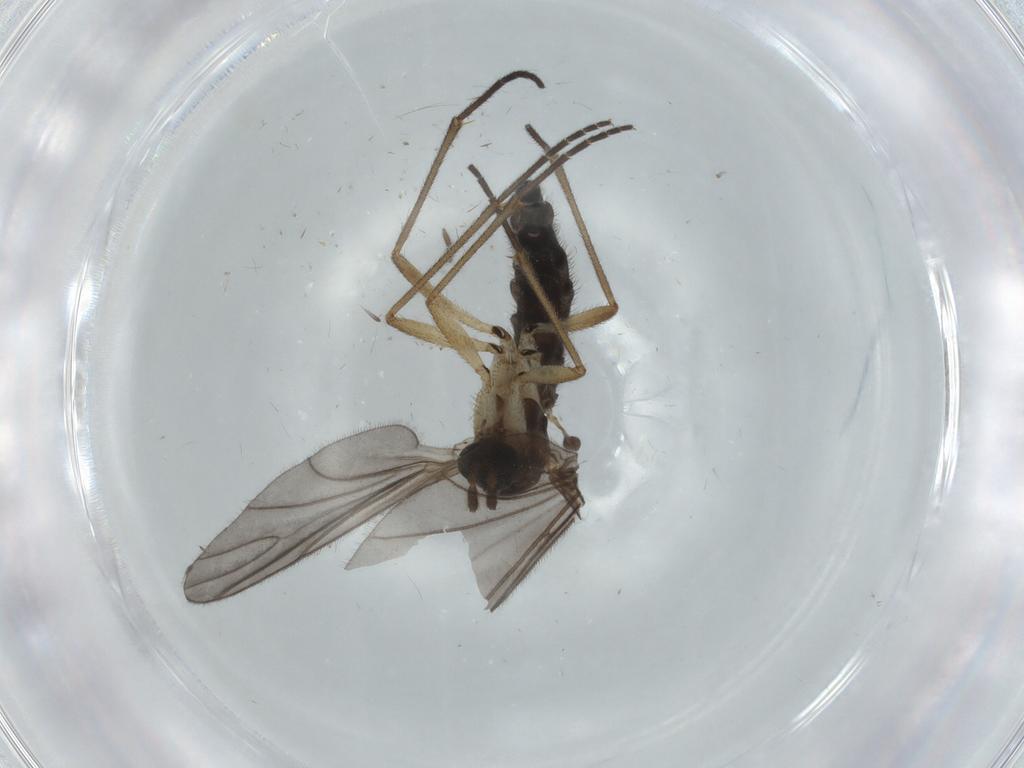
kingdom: Animalia
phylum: Arthropoda
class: Insecta
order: Diptera
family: Sciaridae
